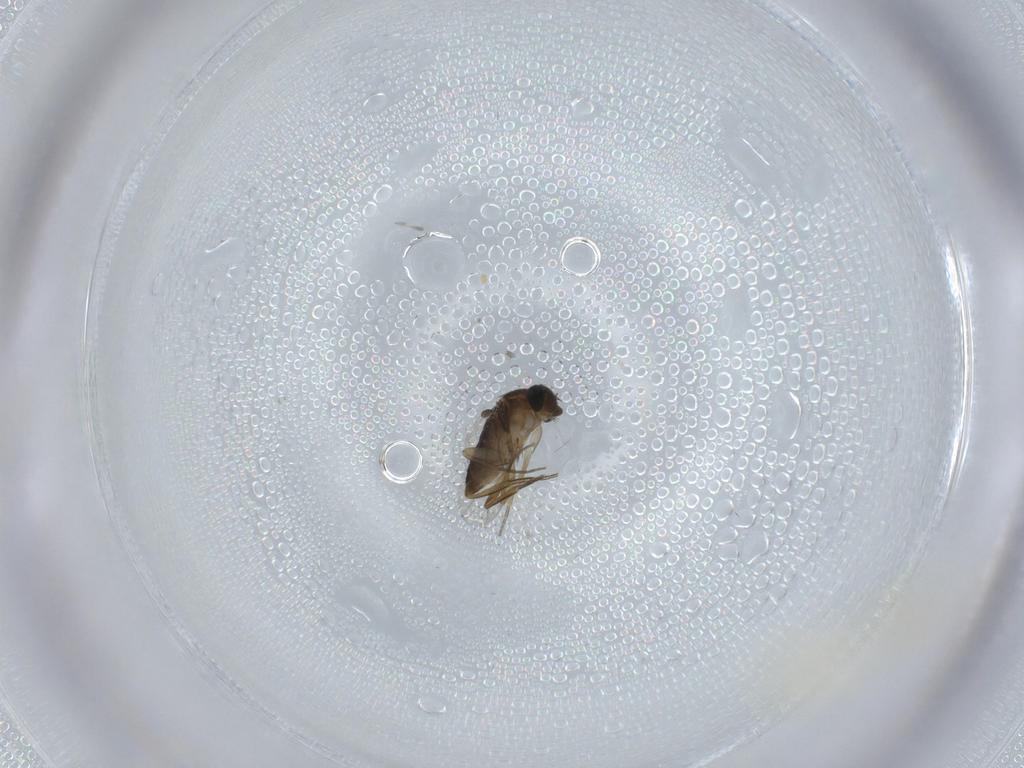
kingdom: Animalia
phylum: Arthropoda
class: Insecta
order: Diptera
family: Phoridae
